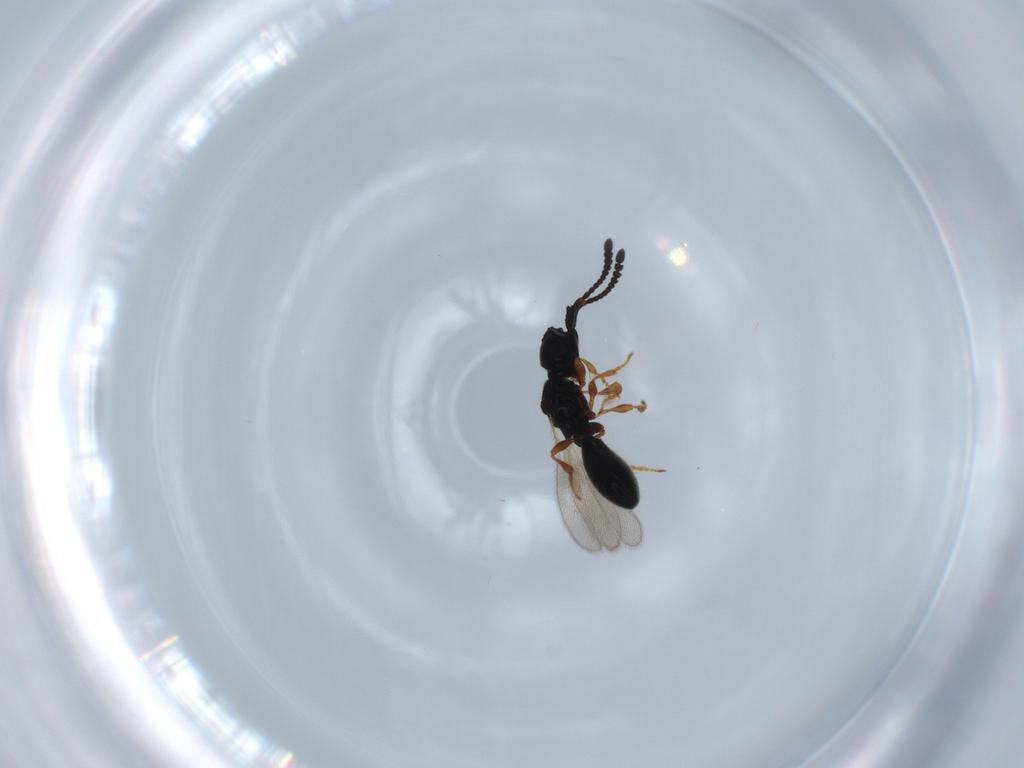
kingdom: Animalia
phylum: Arthropoda
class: Insecta
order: Hymenoptera
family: Diapriidae
